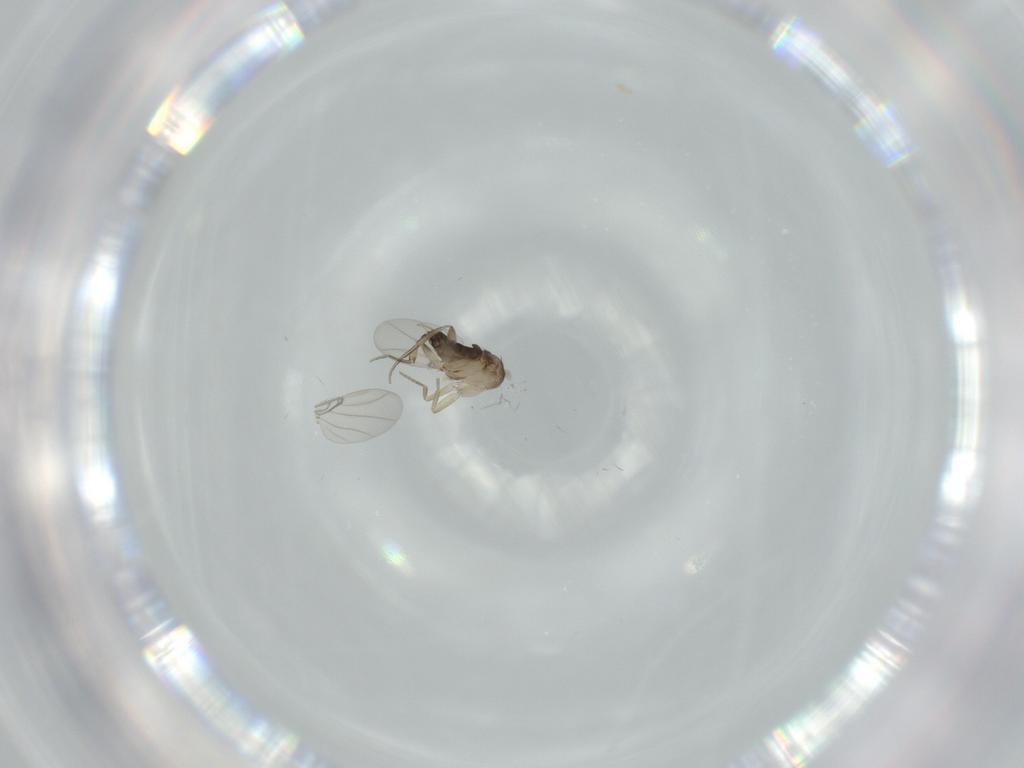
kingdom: Animalia
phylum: Arthropoda
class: Insecta
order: Diptera
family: Phoridae
